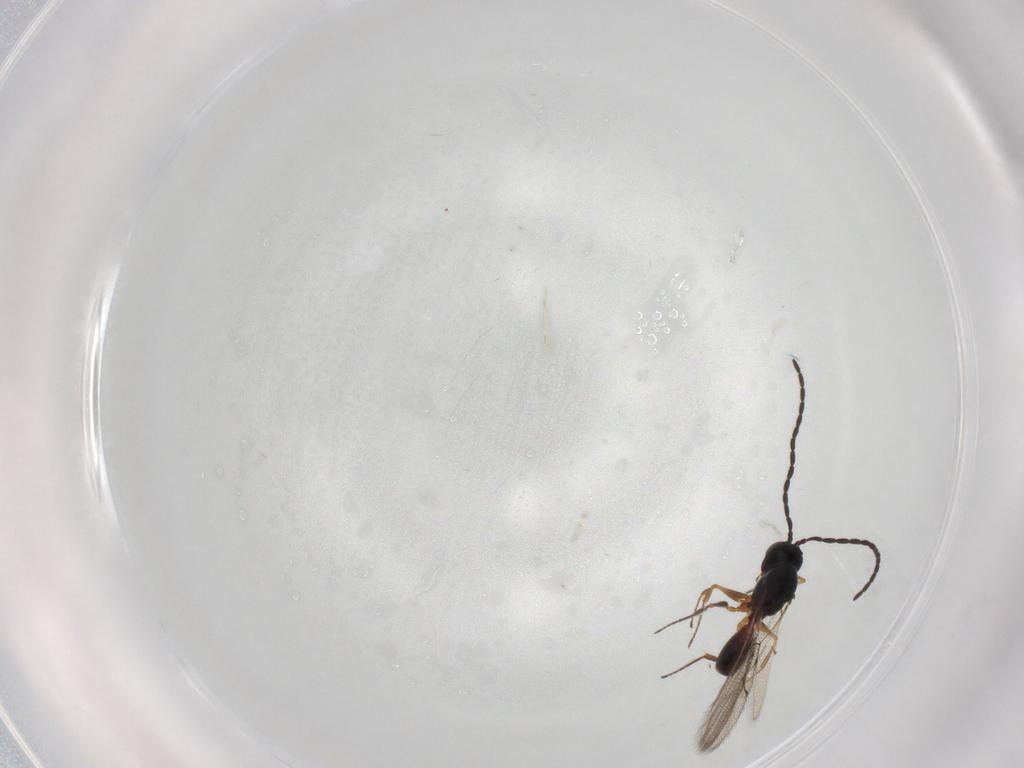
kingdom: Animalia
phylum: Arthropoda
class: Insecta
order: Hymenoptera
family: Figitidae
